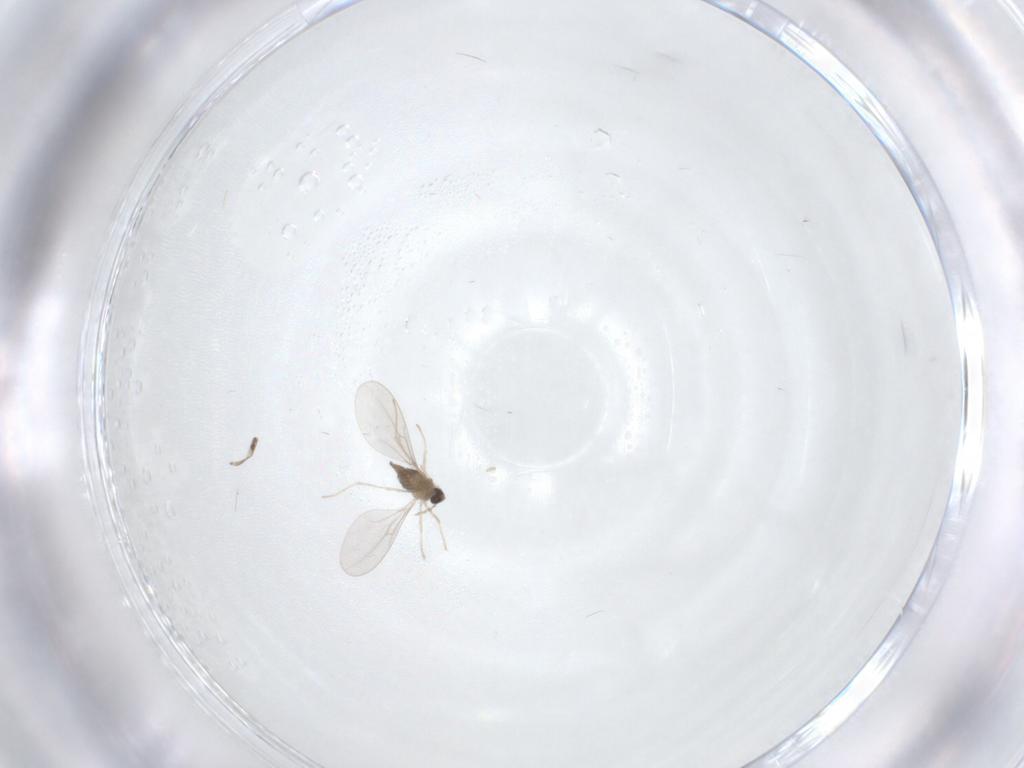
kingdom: Animalia
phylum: Arthropoda
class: Insecta
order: Diptera
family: Cecidomyiidae
